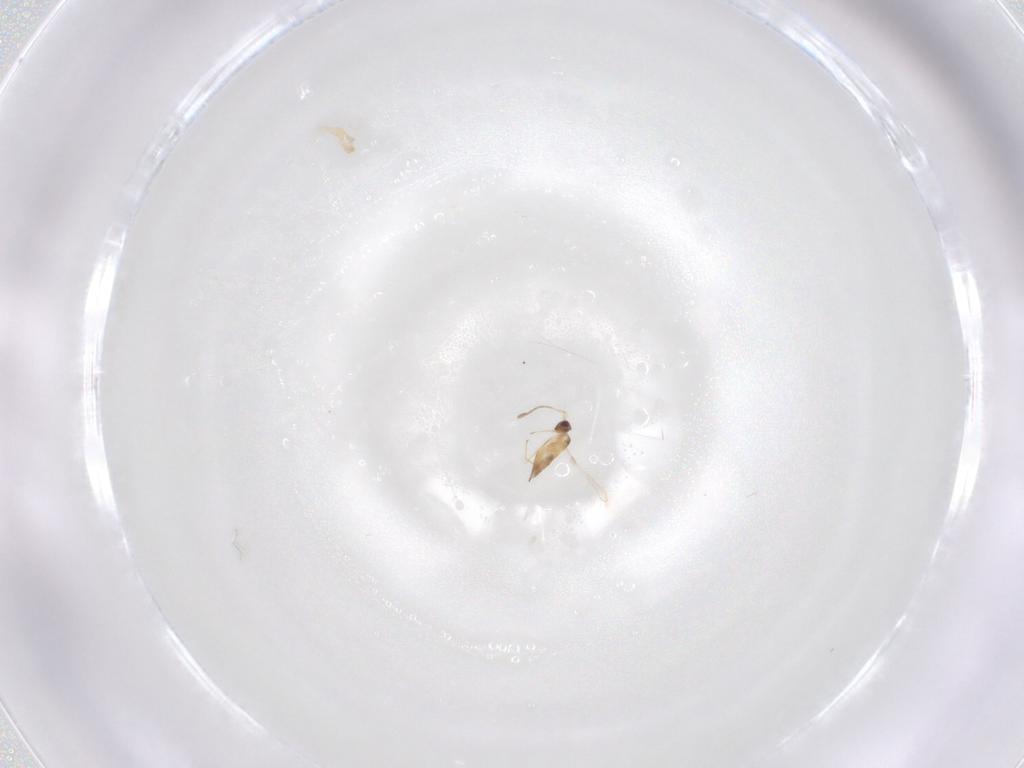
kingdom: Animalia
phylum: Arthropoda
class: Insecta
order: Hymenoptera
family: Mymaridae
